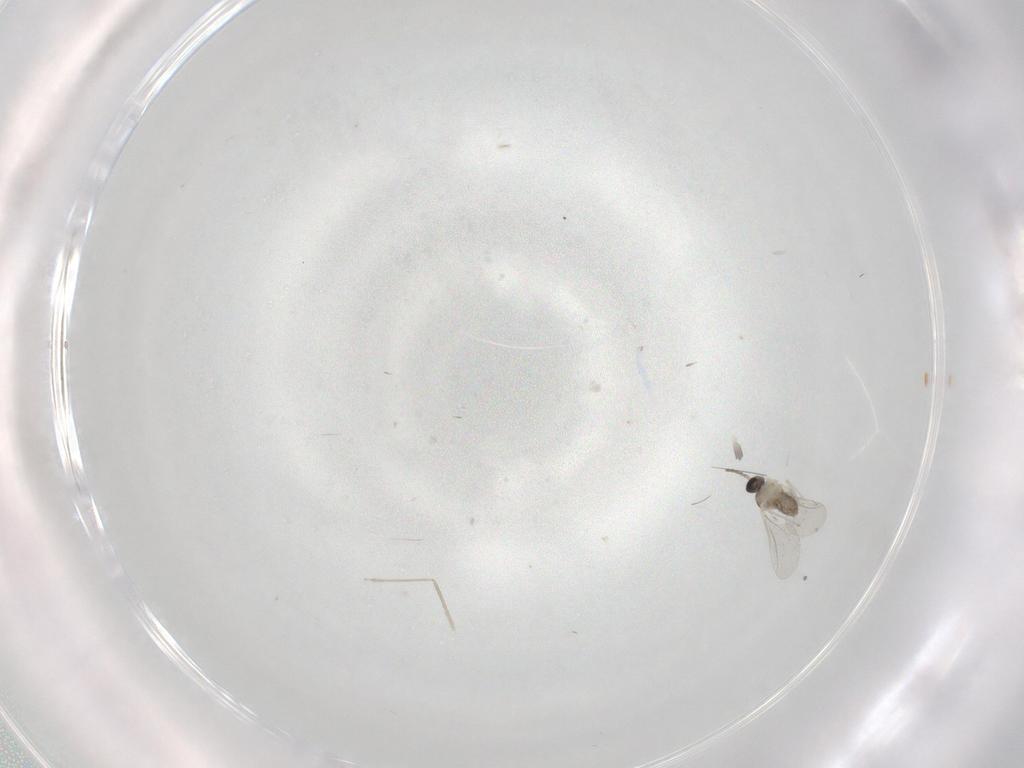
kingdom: Animalia
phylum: Arthropoda
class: Insecta
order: Diptera
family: Cecidomyiidae
